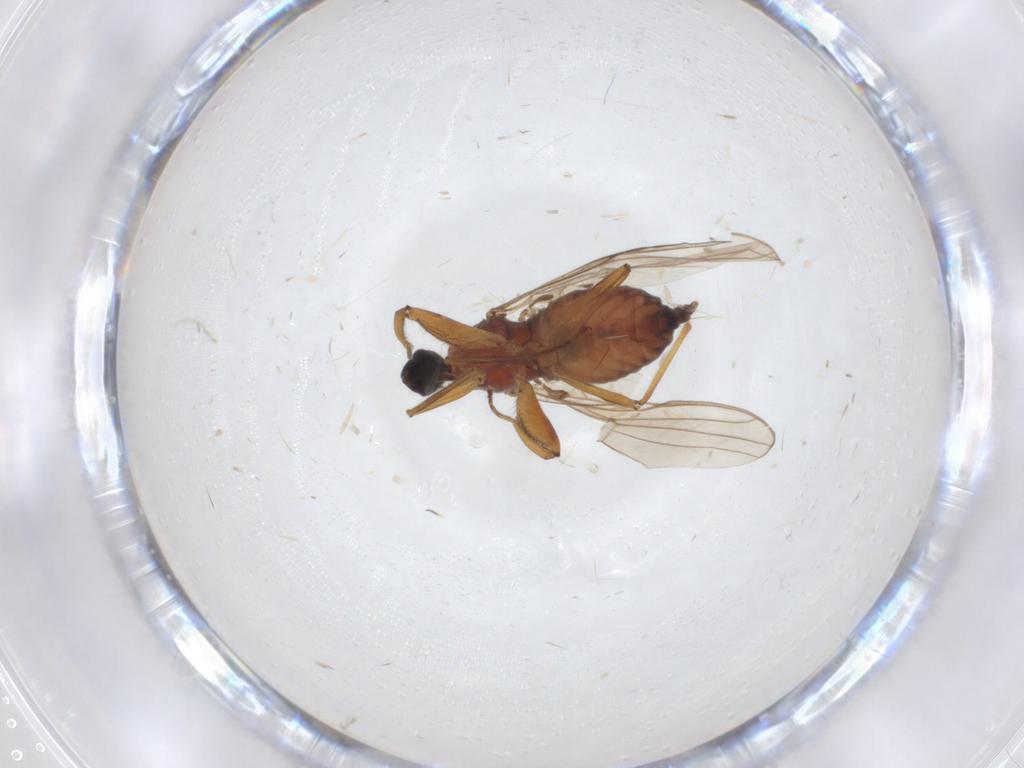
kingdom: Animalia
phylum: Arthropoda
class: Insecta
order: Diptera
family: Hybotidae
